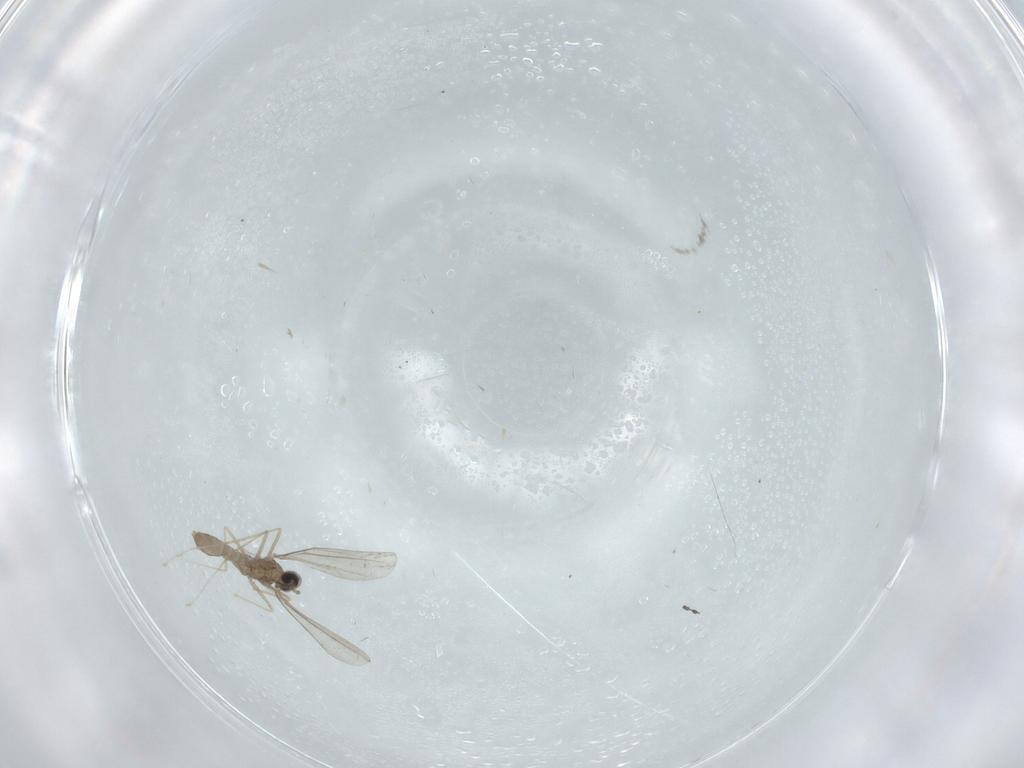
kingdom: Animalia
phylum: Arthropoda
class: Insecta
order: Diptera
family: Cecidomyiidae
